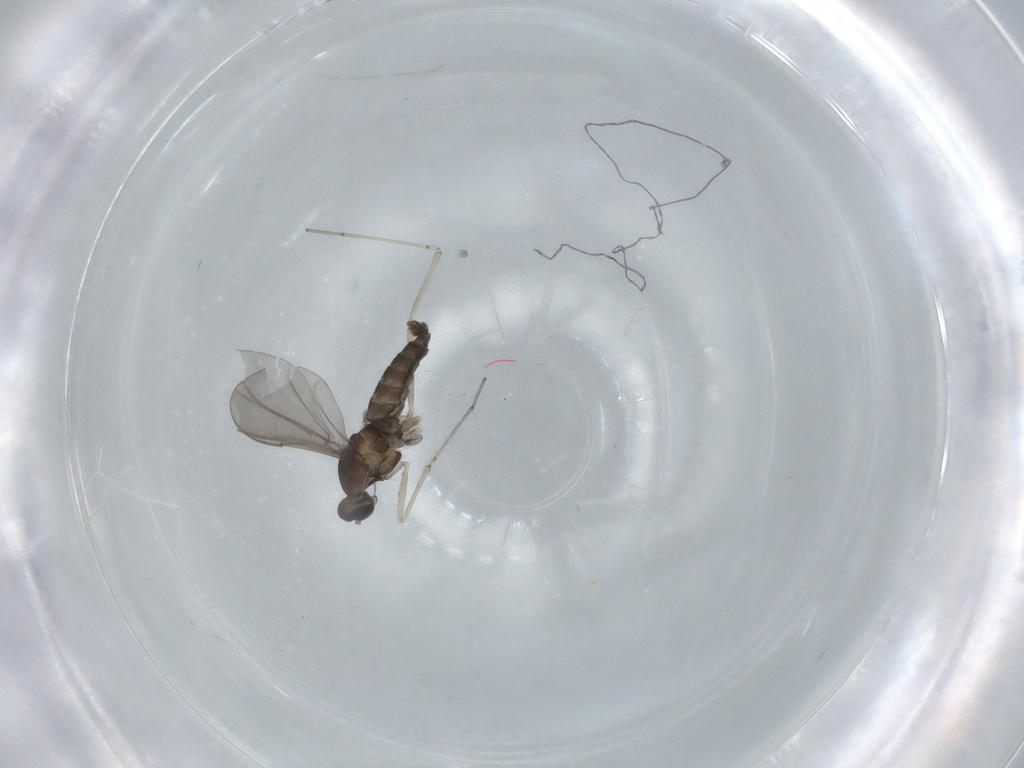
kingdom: Animalia
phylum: Arthropoda
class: Insecta
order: Diptera
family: Cecidomyiidae
